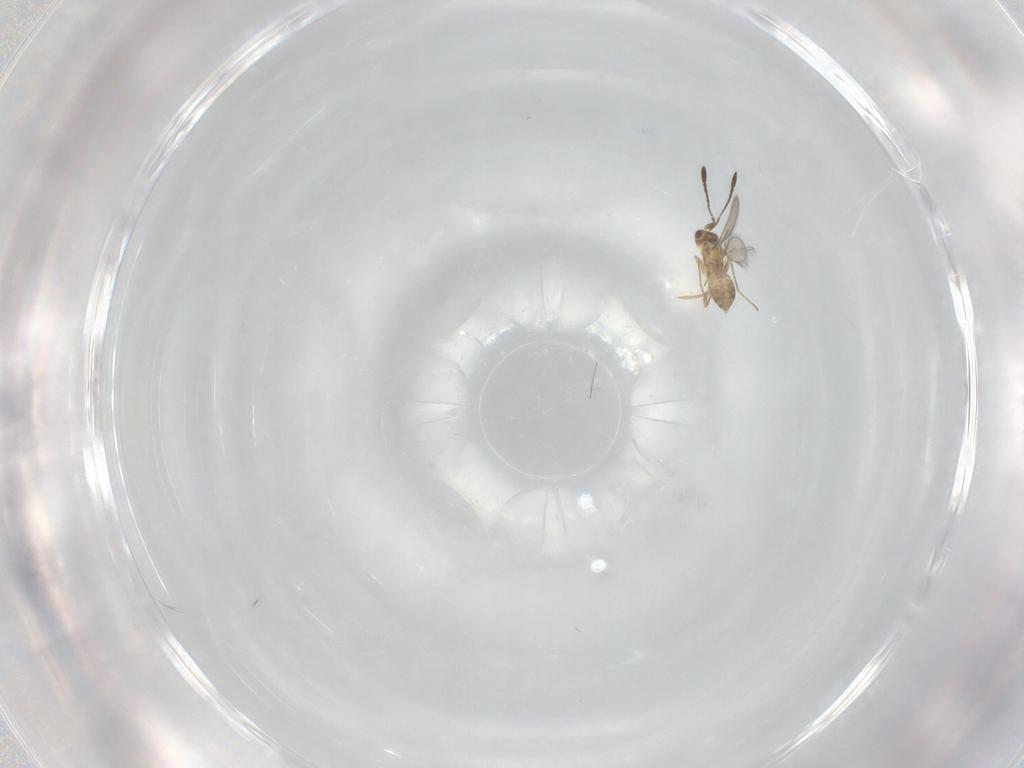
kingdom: Animalia
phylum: Arthropoda
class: Insecta
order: Hymenoptera
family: Mymaridae
